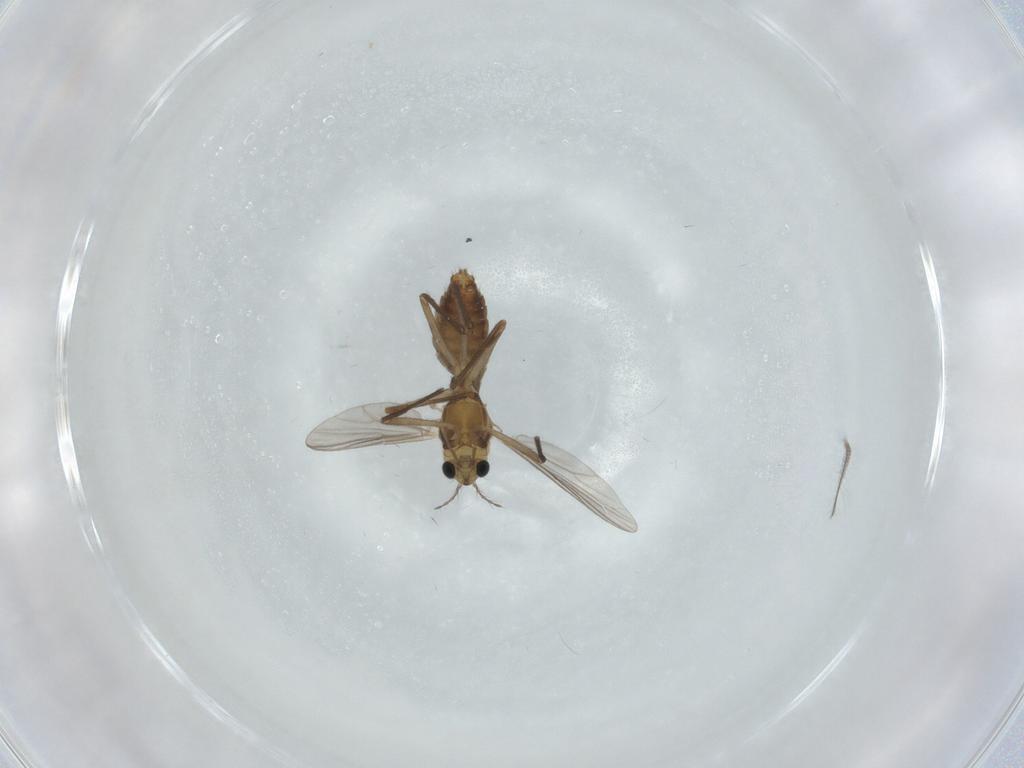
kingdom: Animalia
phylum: Arthropoda
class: Insecta
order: Diptera
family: Chironomidae
